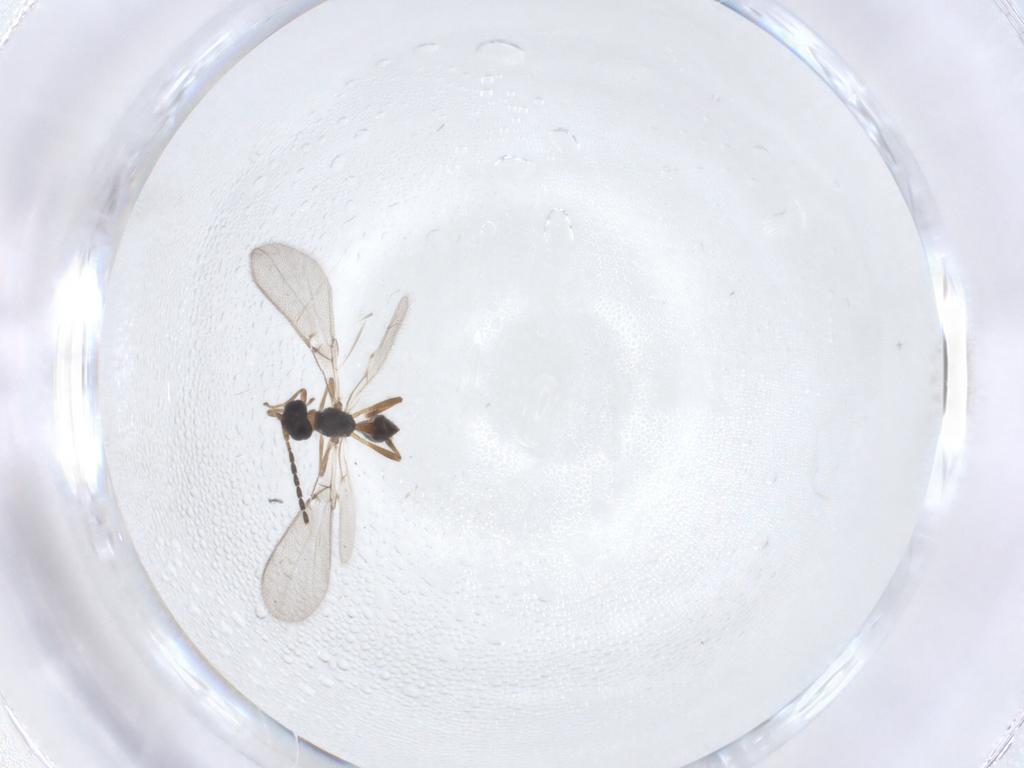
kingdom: Animalia
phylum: Arthropoda
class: Insecta
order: Hymenoptera
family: Braconidae
